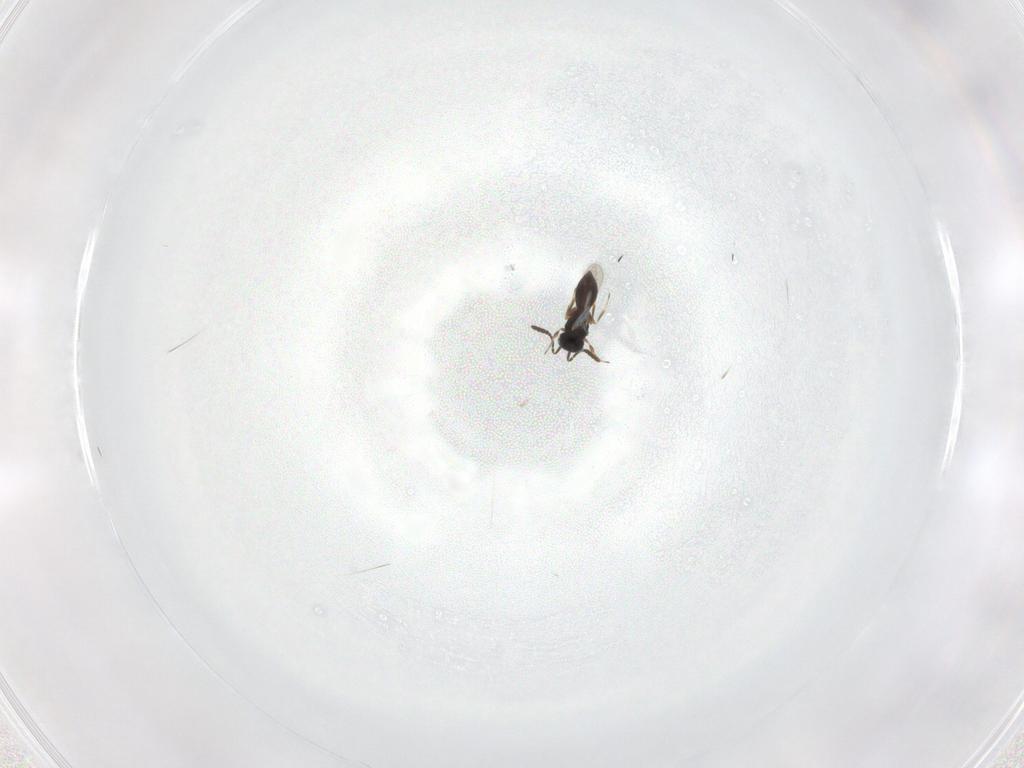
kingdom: Animalia
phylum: Arthropoda
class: Insecta
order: Hymenoptera
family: Scelionidae
